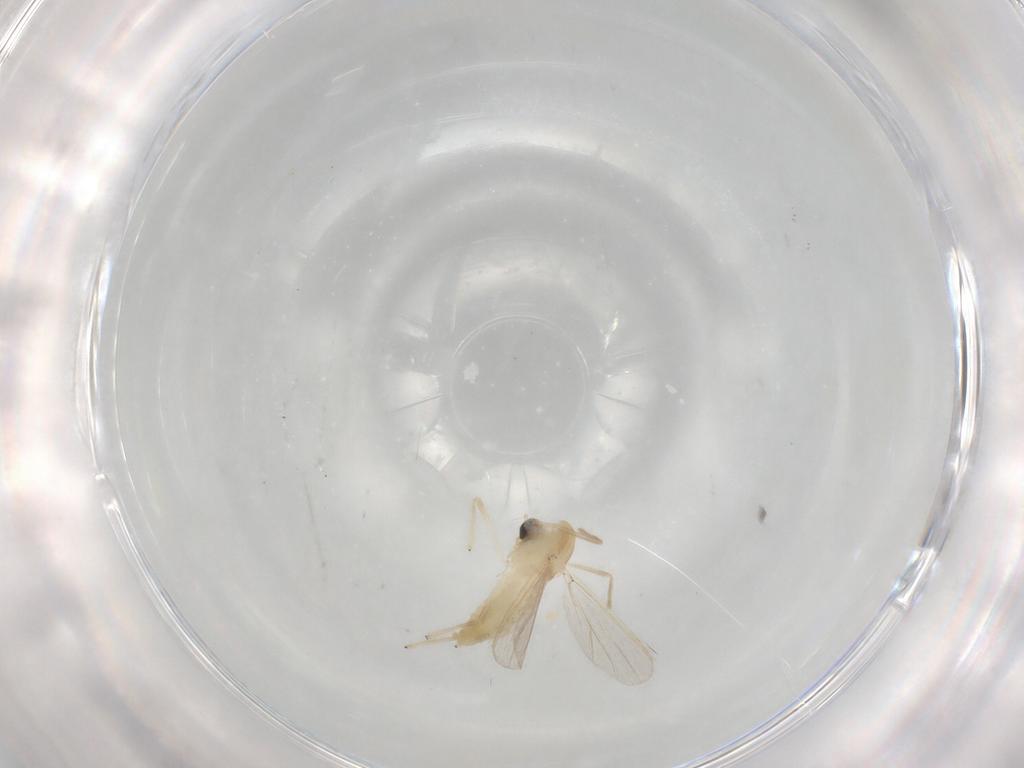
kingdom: Animalia
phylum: Arthropoda
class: Insecta
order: Diptera
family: Chironomidae
